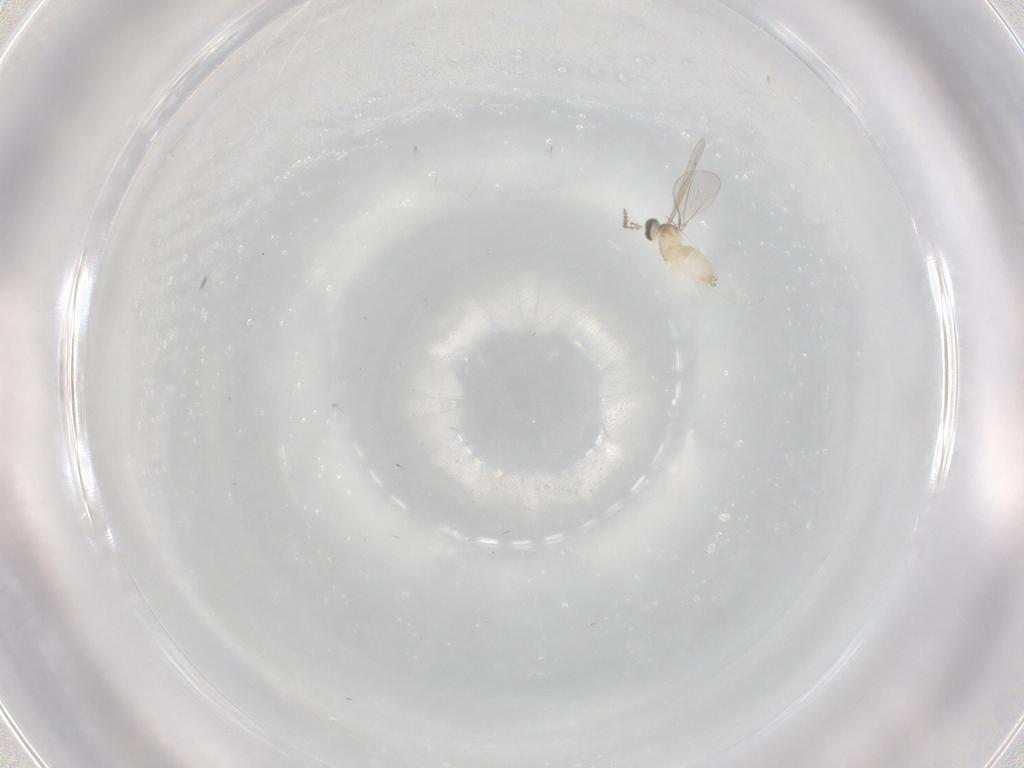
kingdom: Animalia
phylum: Arthropoda
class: Insecta
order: Diptera
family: Cecidomyiidae
